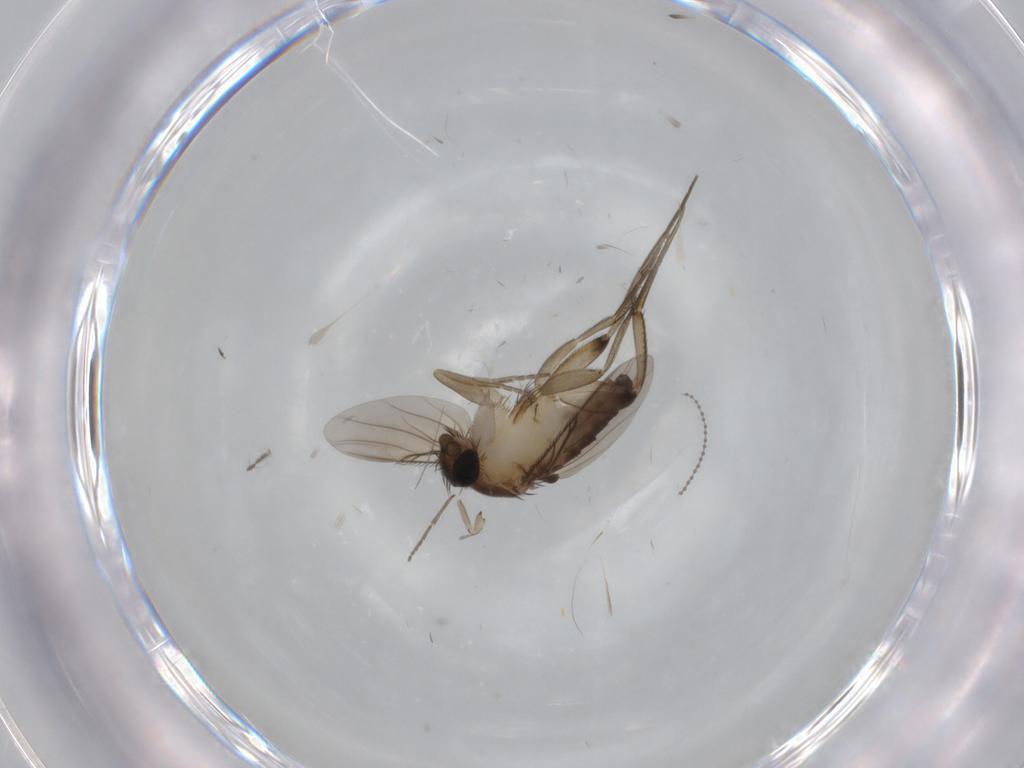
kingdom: Animalia
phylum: Arthropoda
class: Insecta
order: Diptera
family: Phoridae
